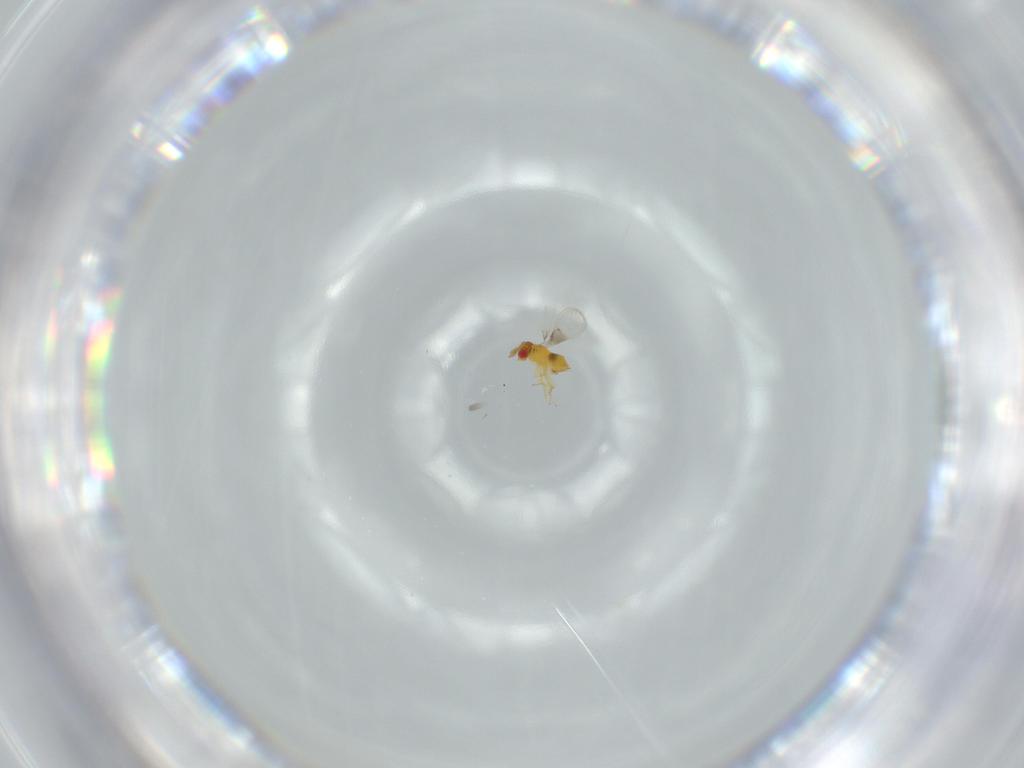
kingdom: Animalia
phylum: Arthropoda
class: Insecta
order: Hymenoptera
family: Trichogrammatidae
